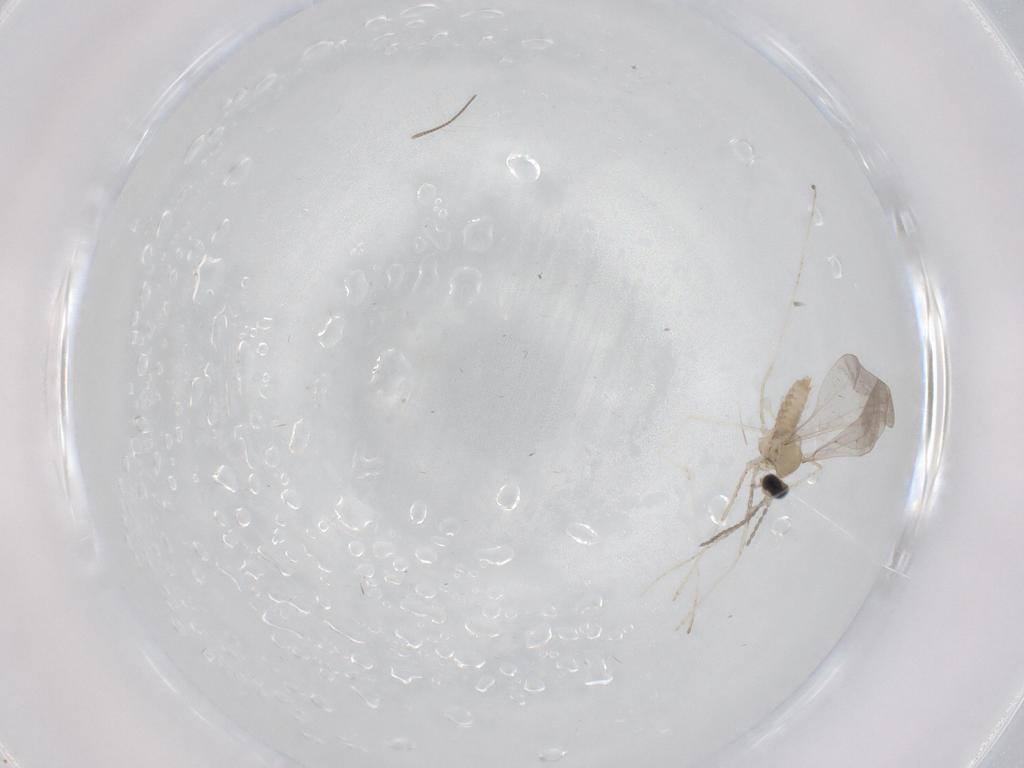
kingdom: Animalia
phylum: Arthropoda
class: Insecta
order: Diptera
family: Chironomidae
